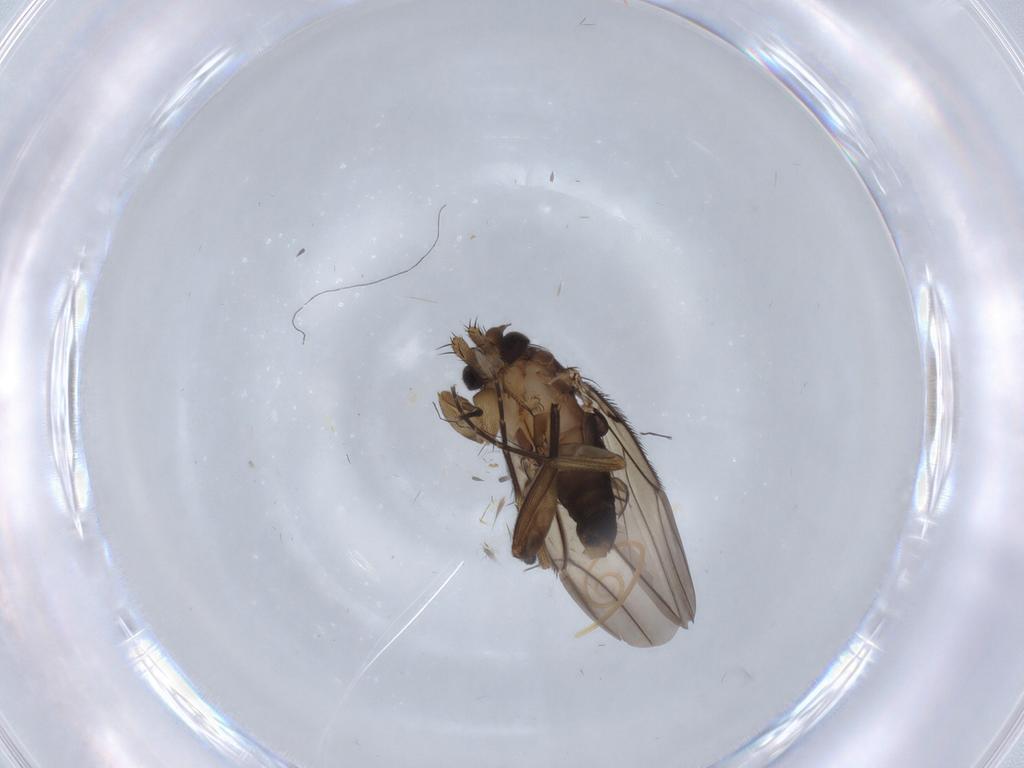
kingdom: Animalia
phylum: Arthropoda
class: Insecta
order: Diptera
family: Phoridae
